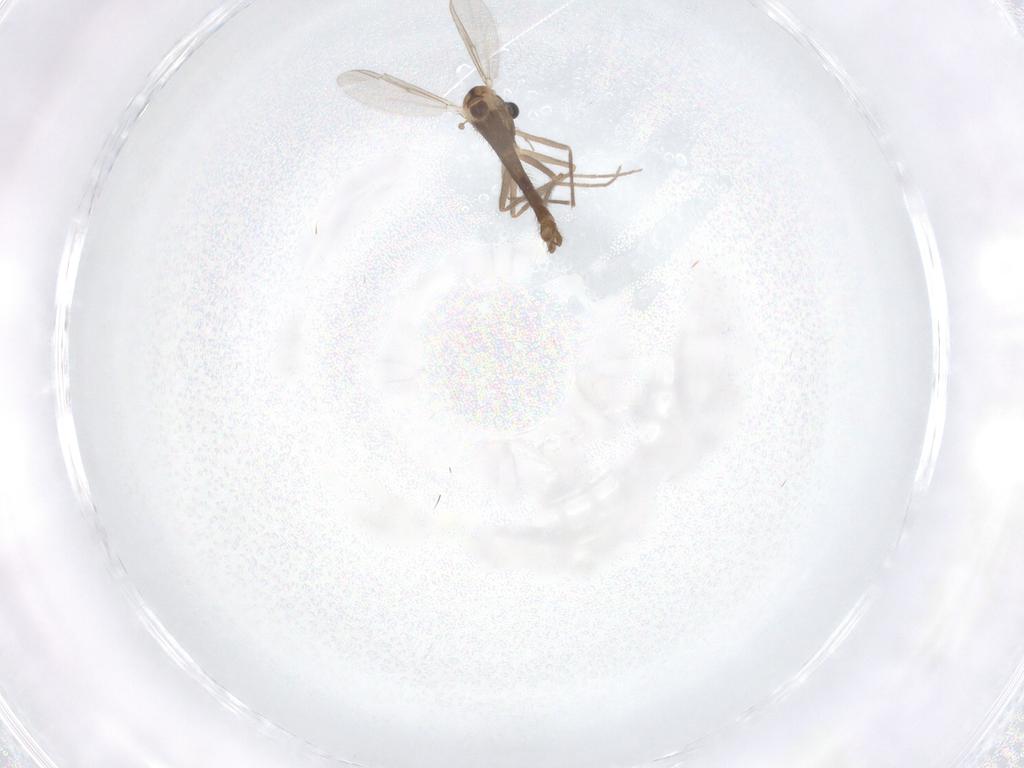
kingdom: Animalia
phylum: Arthropoda
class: Insecta
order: Diptera
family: Chironomidae
